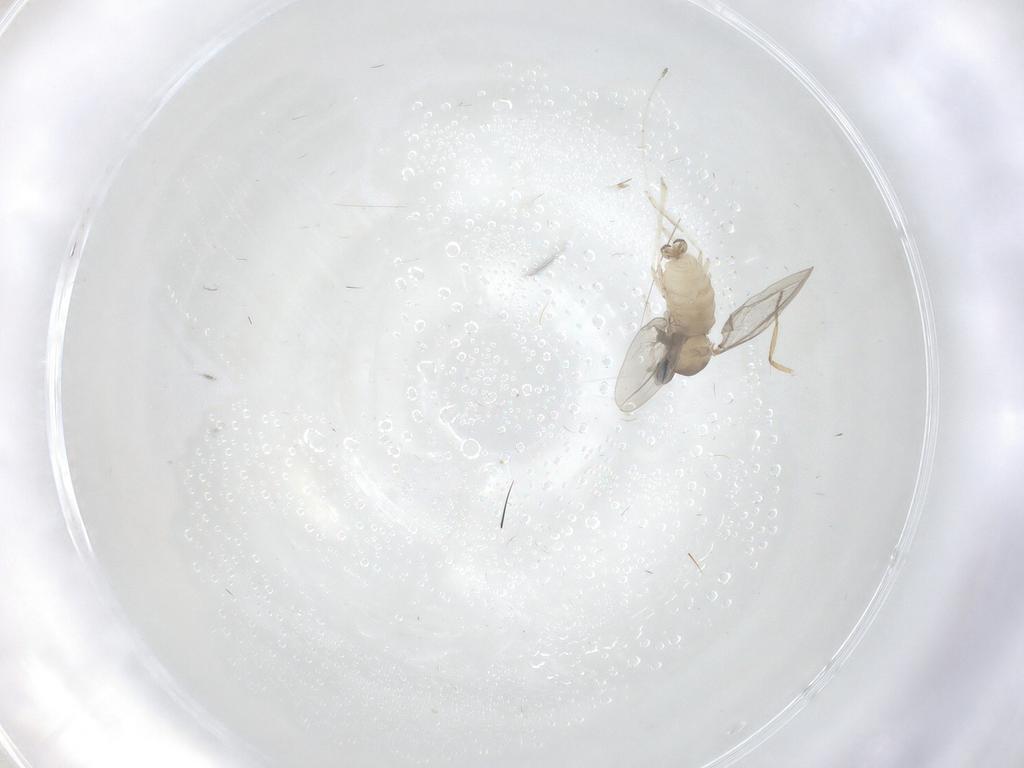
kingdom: Animalia
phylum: Arthropoda
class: Insecta
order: Diptera
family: Cecidomyiidae
